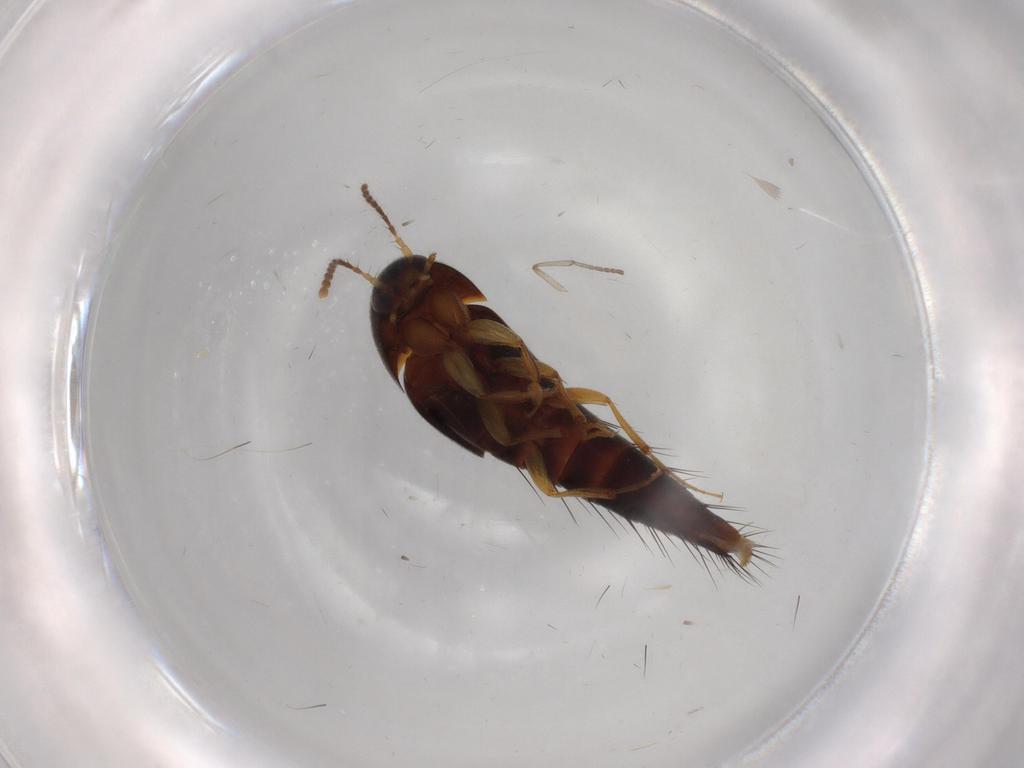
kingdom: Animalia
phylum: Arthropoda
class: Insecta
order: Coleoptera
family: Staphylinidae
